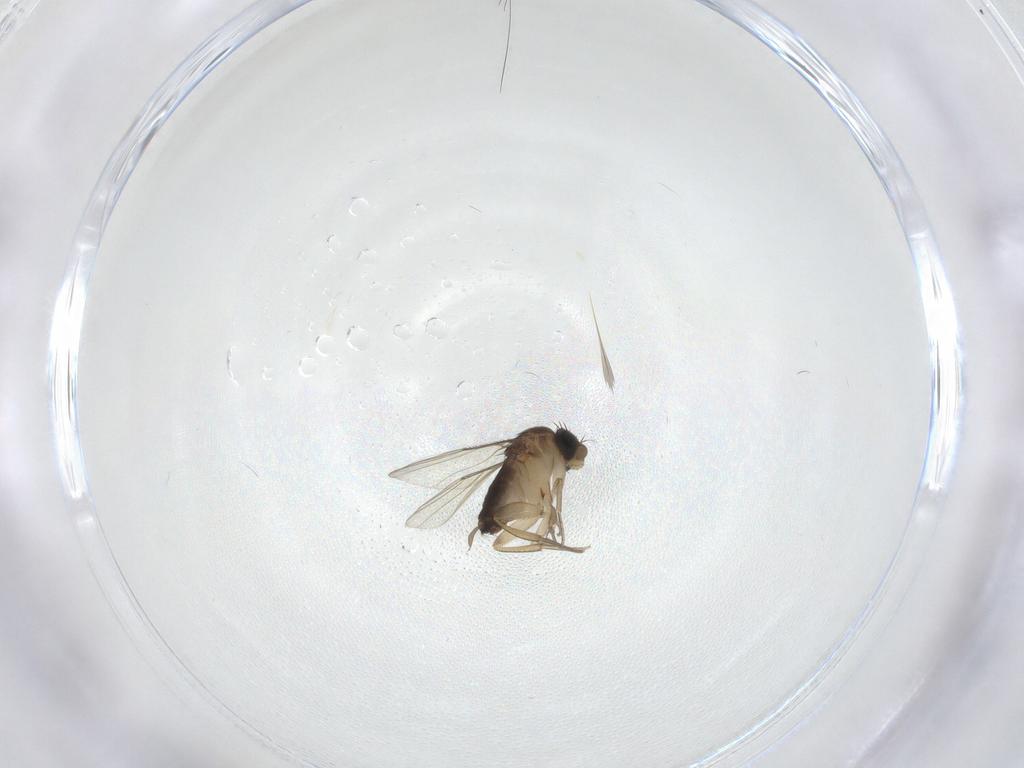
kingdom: Animalia
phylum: Arthropoda
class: Insecta
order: Diptera
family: Sciaridae
